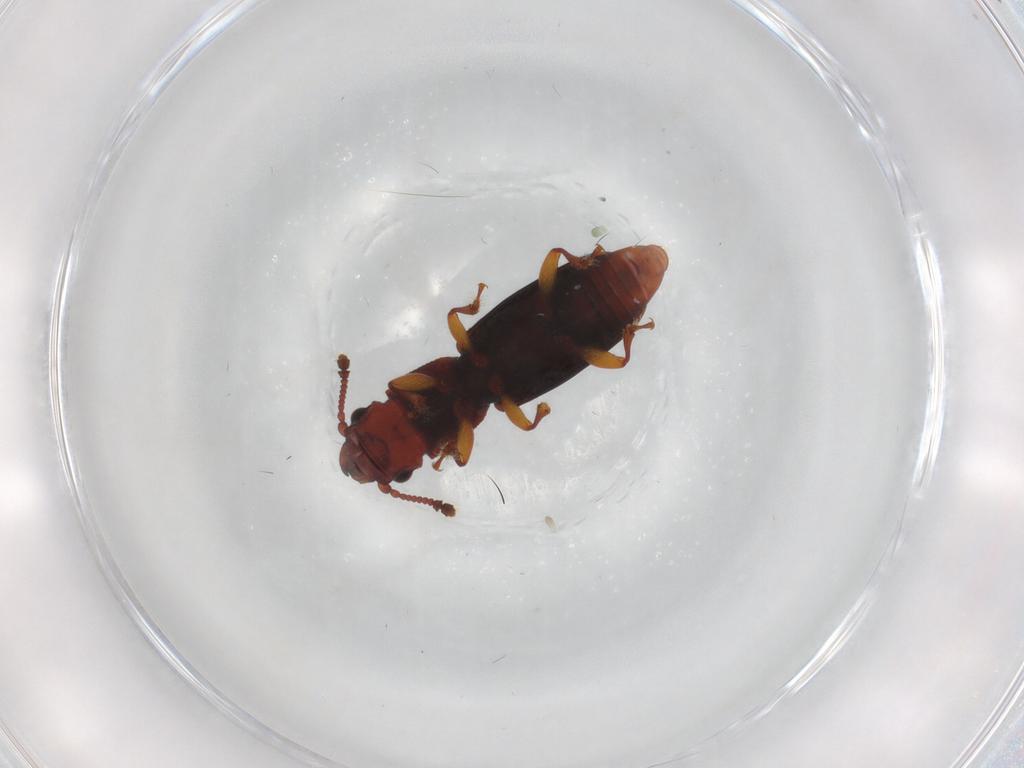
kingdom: Animalia
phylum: Arthropoda
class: Insecta
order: Coleoptera
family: Monotomidae
